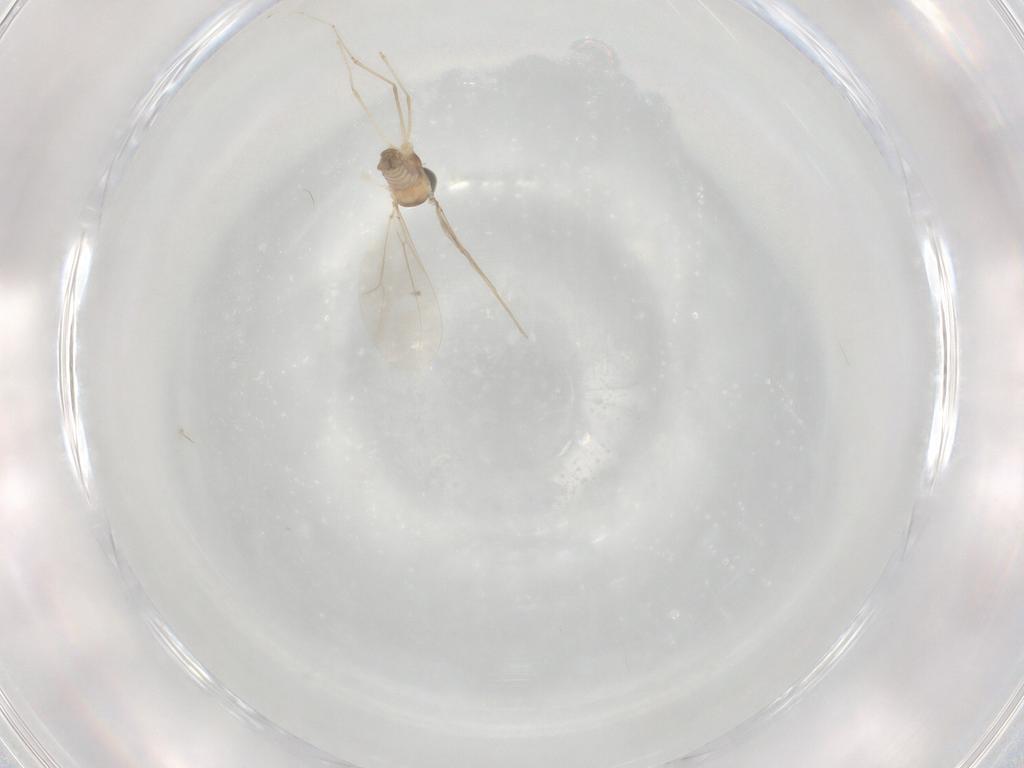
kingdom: Animalia
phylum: Arthropoda
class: Insecta
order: Diptera
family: Cecidomyiidae
